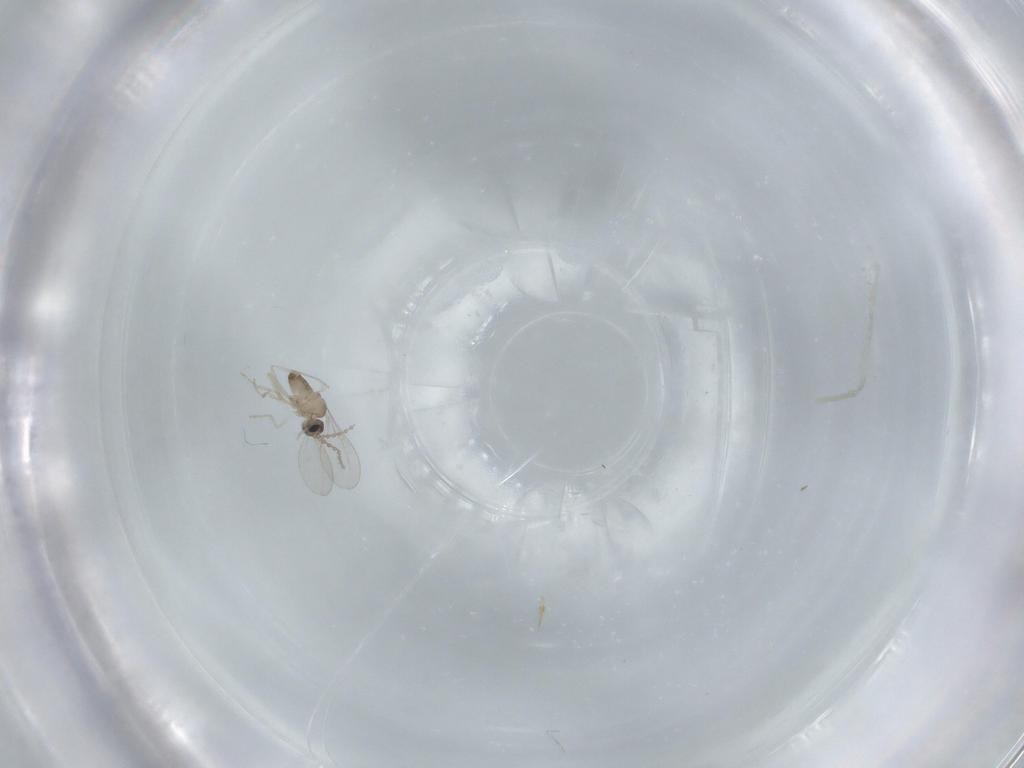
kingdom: Animalia
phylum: Arthropoda
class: Insecta
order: Diptera
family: Cecidomyiidae
